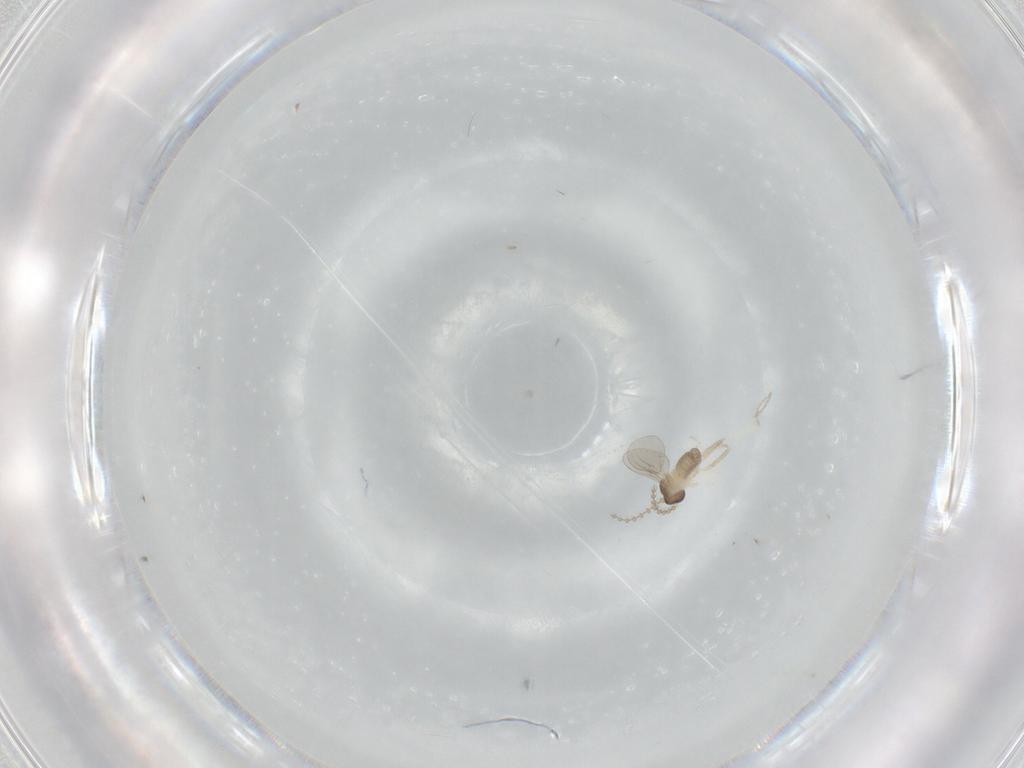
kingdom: Animalia
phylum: Arthropoda
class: Insecta
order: Diptera
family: Cecidomyiidae
